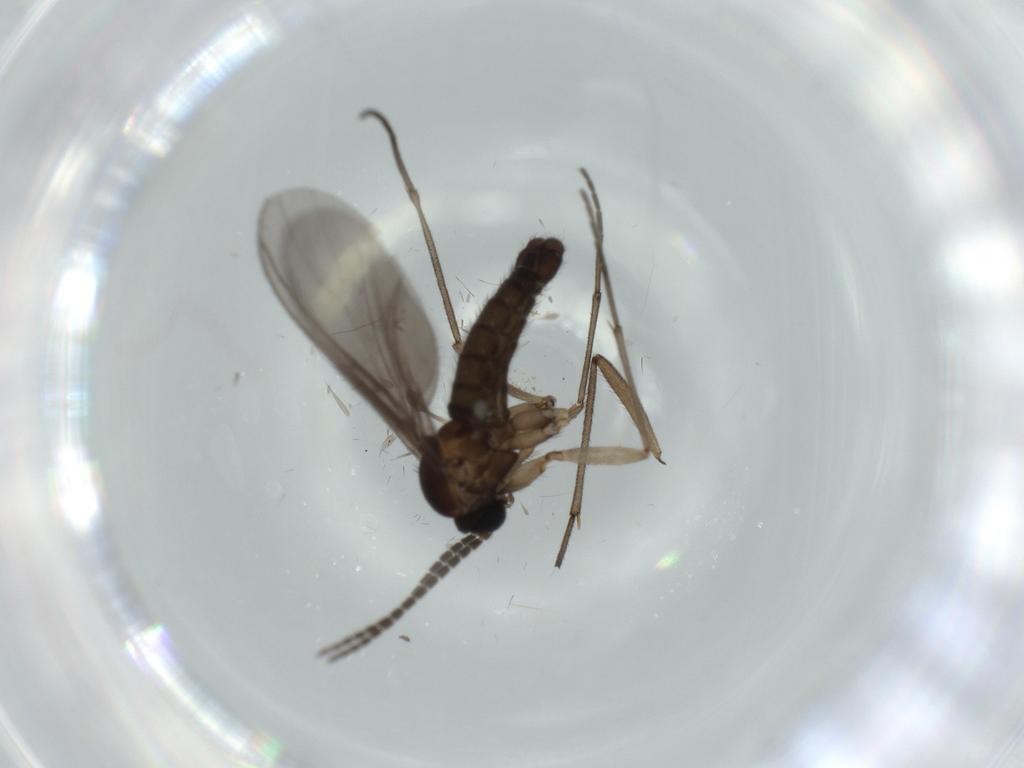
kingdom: Animalia
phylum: Arthropoda
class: Insecta
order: Diptera
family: Sciaridae
